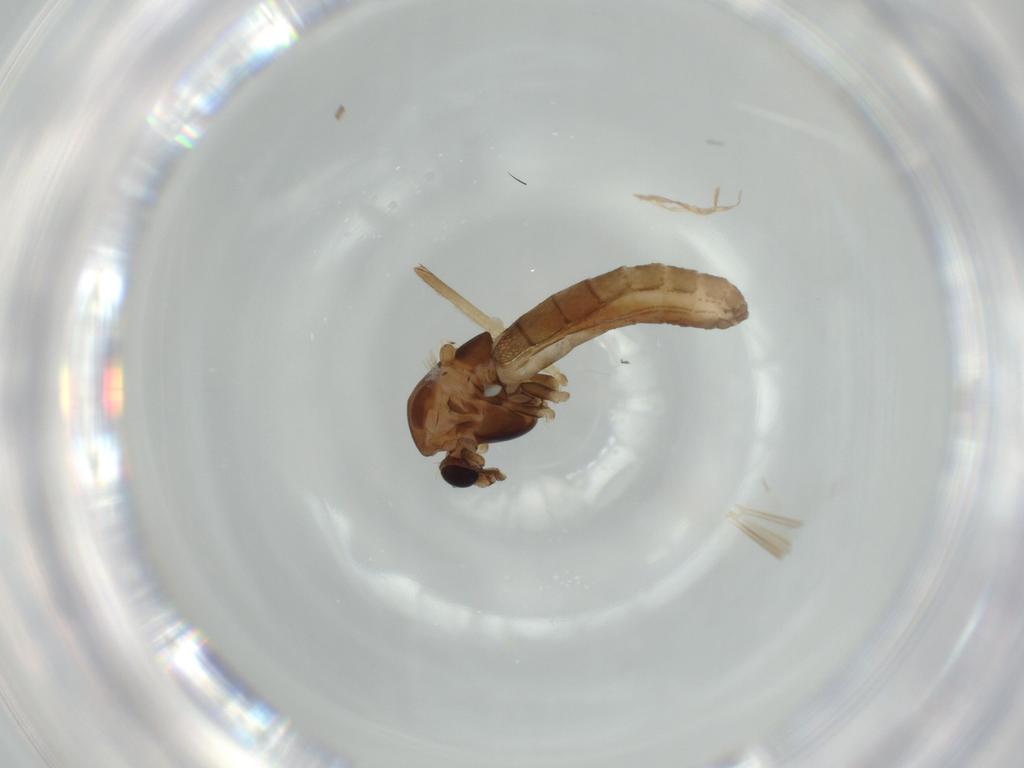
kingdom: Animalia
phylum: Arthropoda
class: Insecta
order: Diptera
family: Chironomidae
